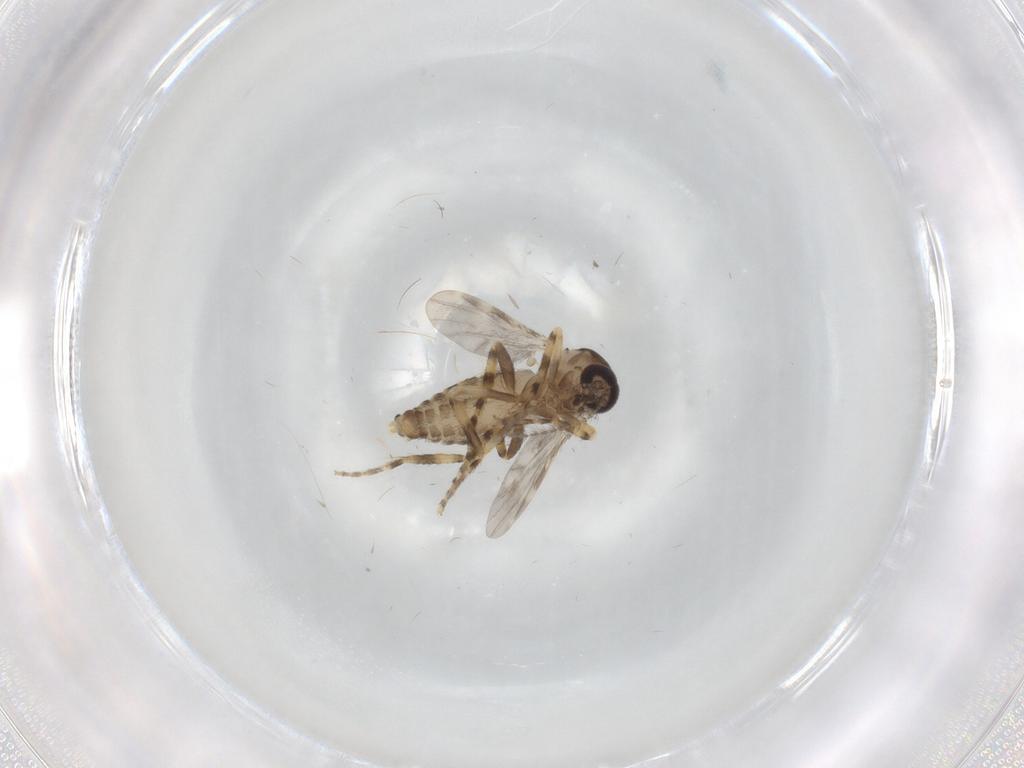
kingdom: Animalia
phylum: Arthropoda
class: Insecta
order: Diptera
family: Ceratopogonidae
